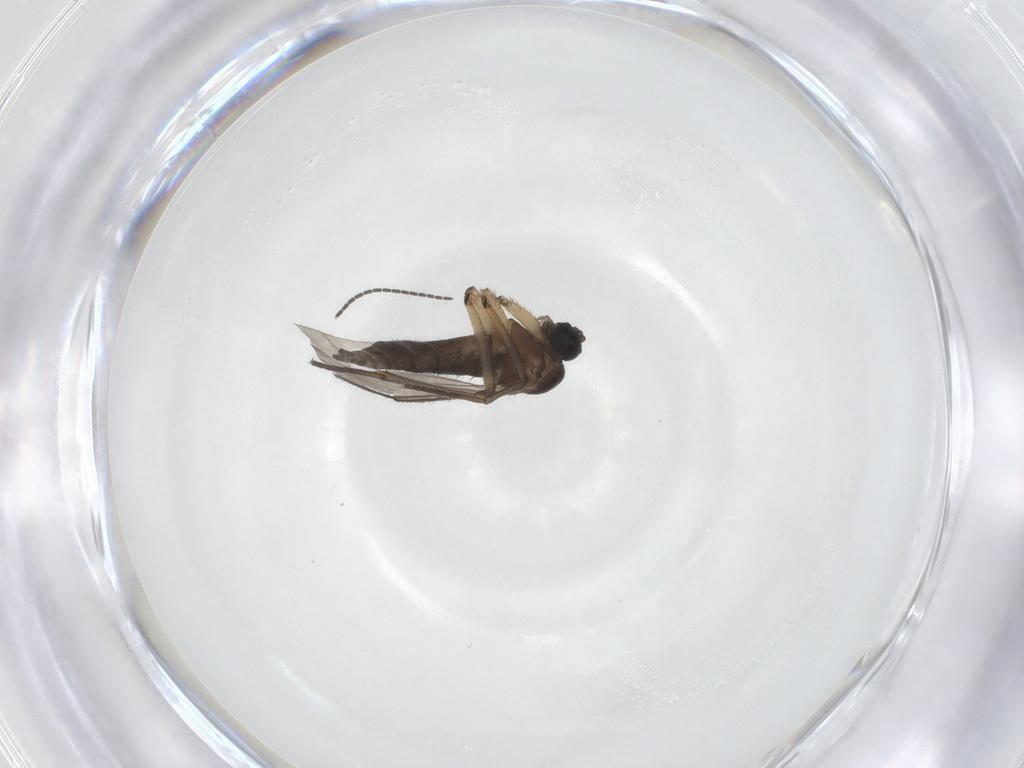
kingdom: Animalia
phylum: Arthropoda
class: Insecta
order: Diptera
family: Sciaridae
